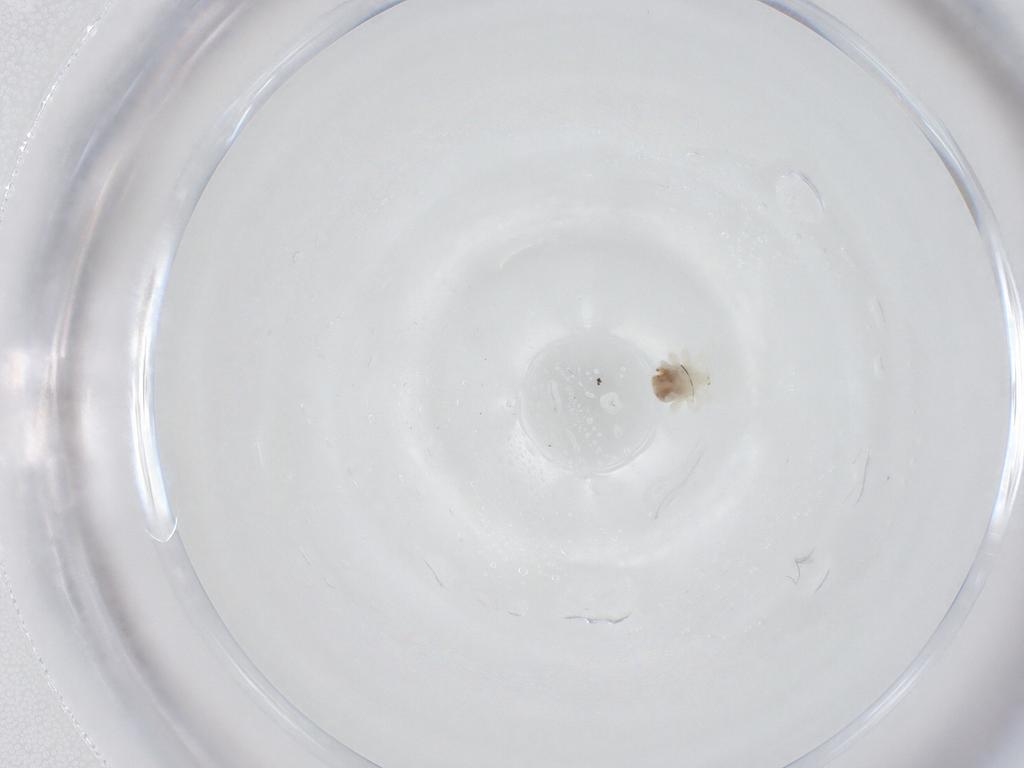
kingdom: Animalia
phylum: Arthropoda
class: Arachnida
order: Trombidiformes
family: Anystidae
